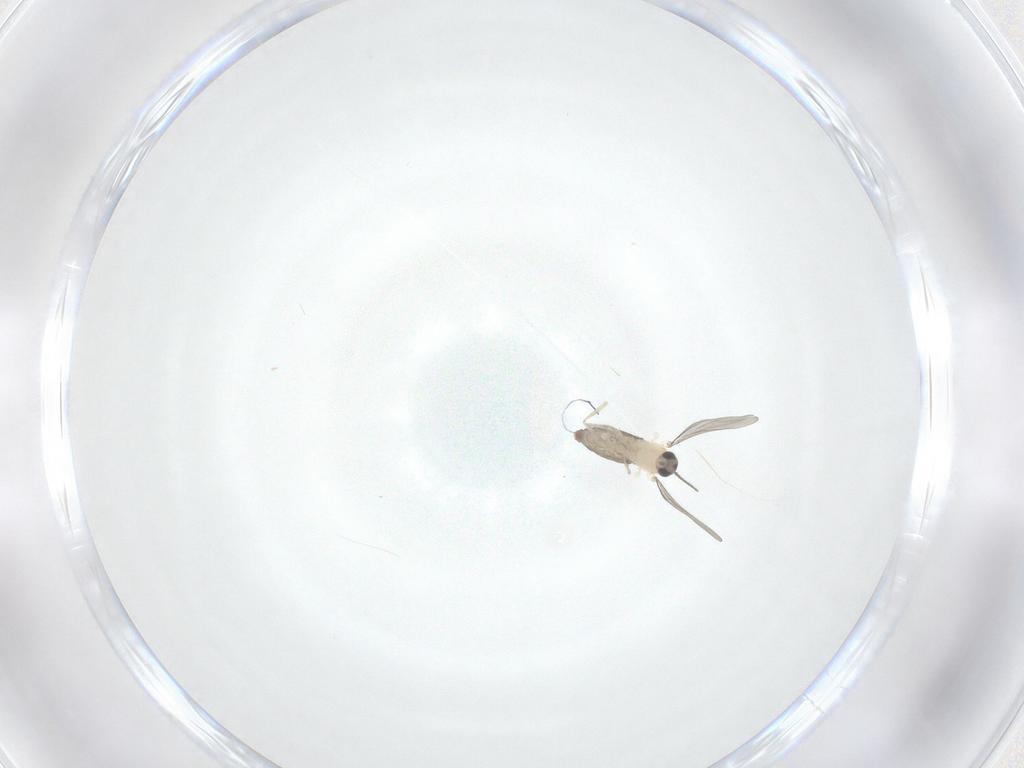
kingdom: Animalia
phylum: Arthropoda
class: Insecta
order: Diptera
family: Cecidomyiidae
